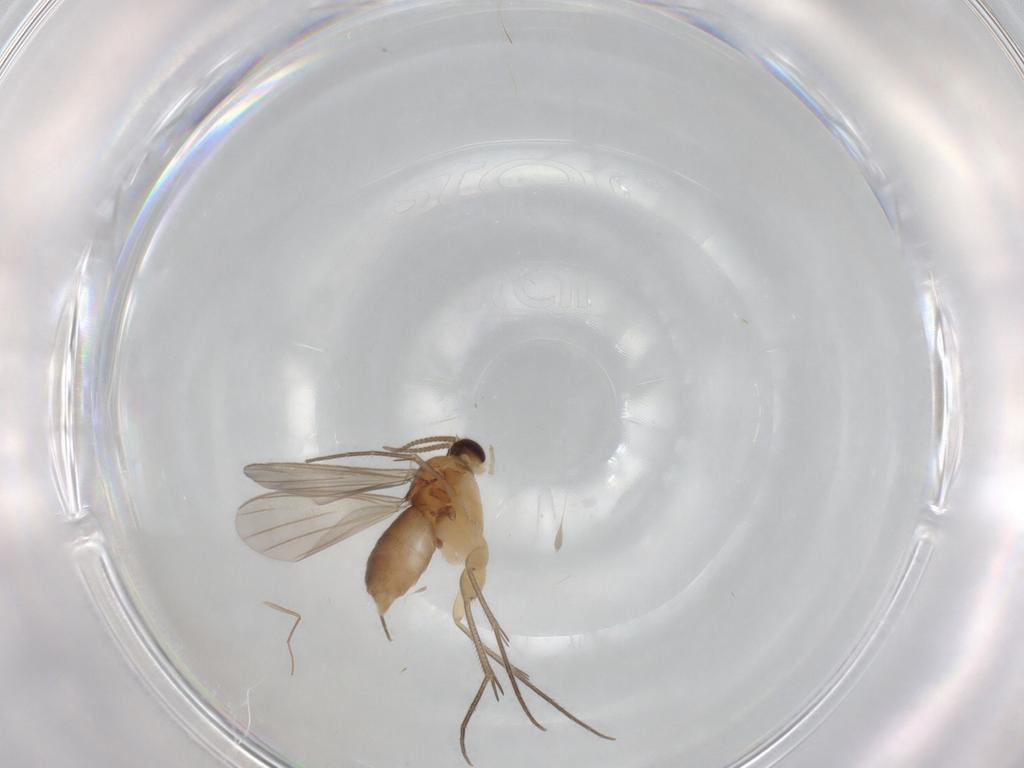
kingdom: Animalia
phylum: Arthropoda
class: Insecta
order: Diptera
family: Mycetophilidae
